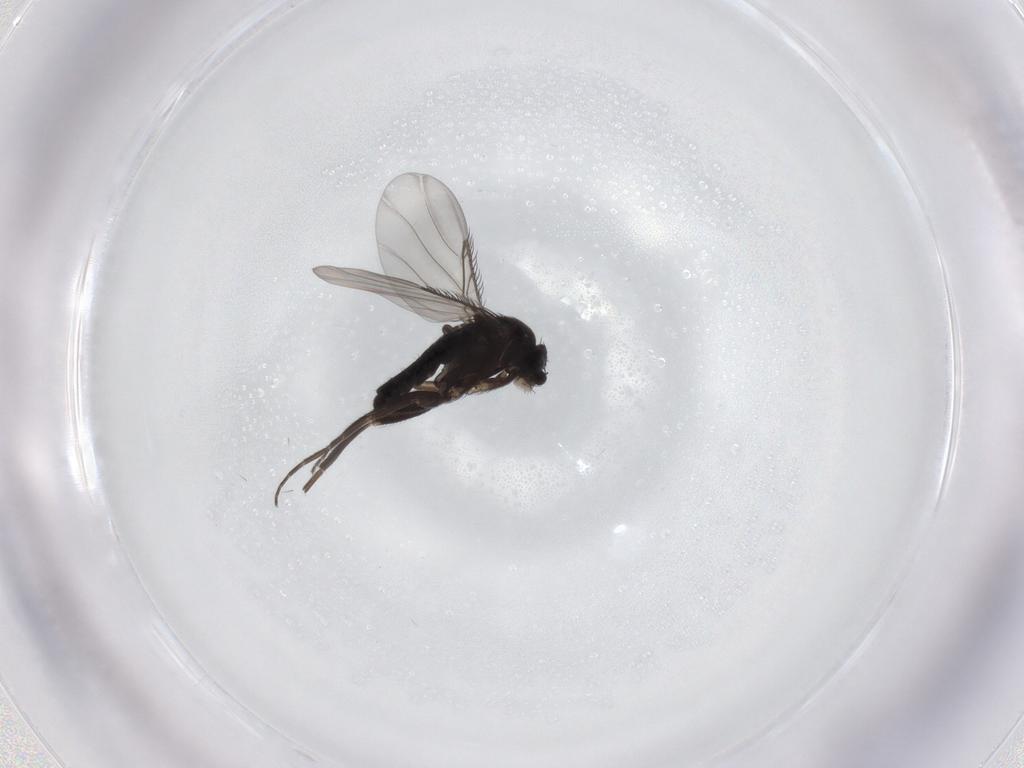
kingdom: Animalia
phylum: Arthropoda
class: Insecta
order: Diptera
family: Phoridae
